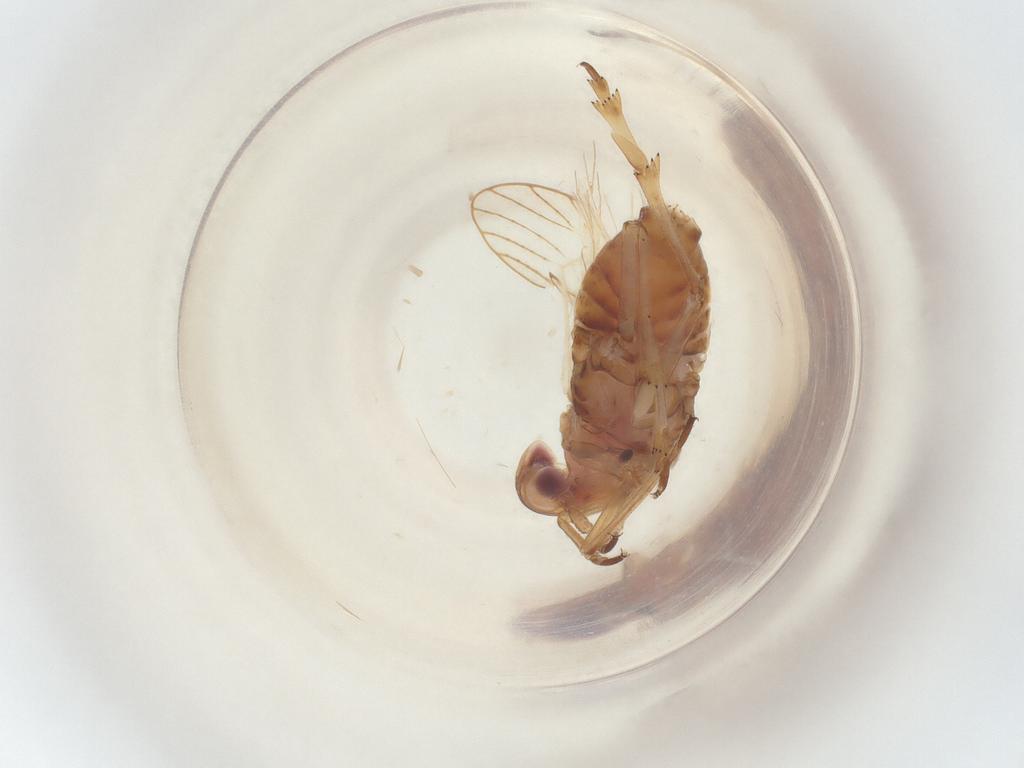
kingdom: Animalia
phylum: Arthropoda
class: Insecta
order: Hemiptera
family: Delphacidae
